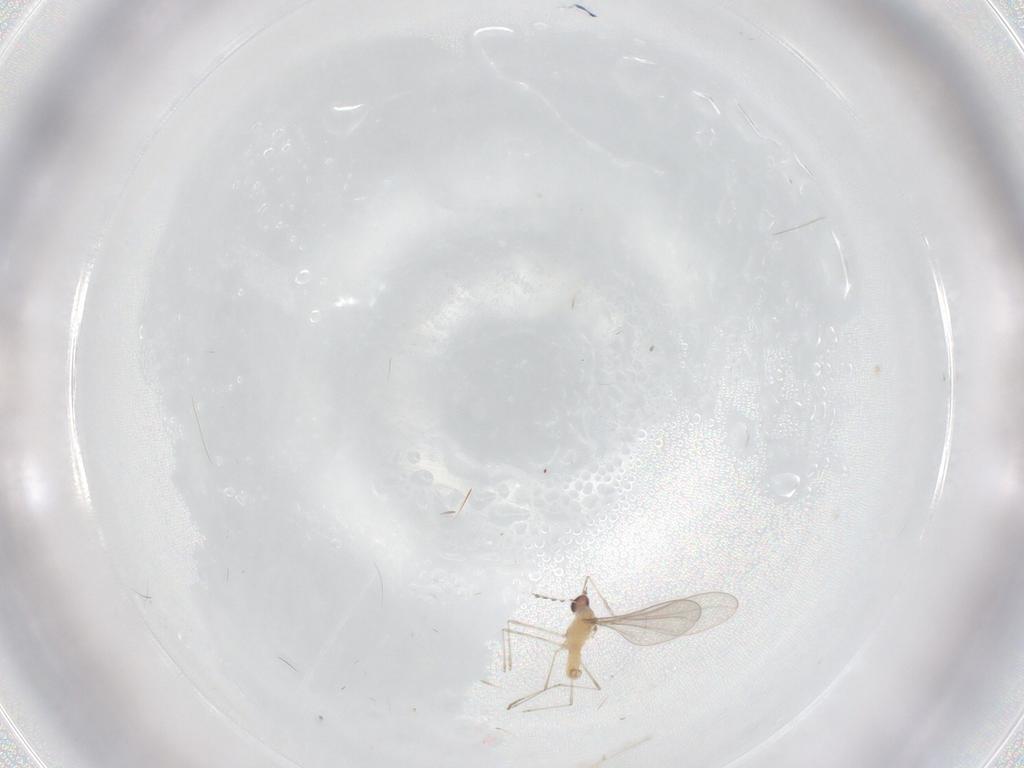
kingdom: Animalia
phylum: Arthropoda
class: Insecta
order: Diptera
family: Cecidomyiidae
